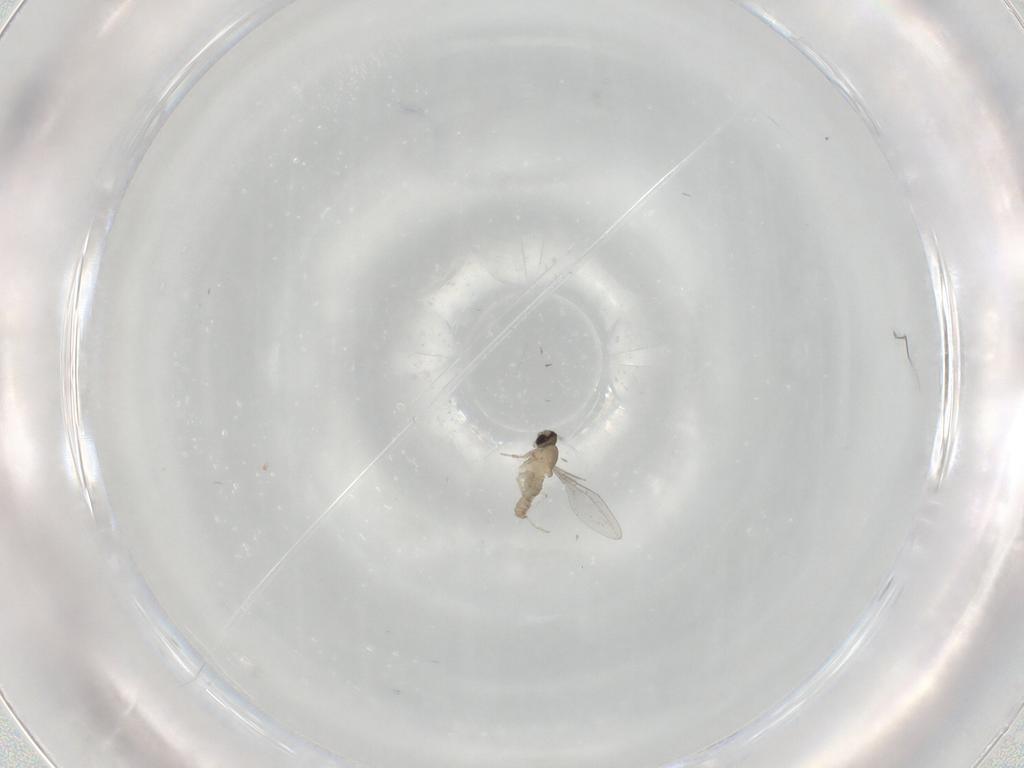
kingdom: Animalia
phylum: Arthropoda
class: Insecta
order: Diptera
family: Cecidomyiidae
